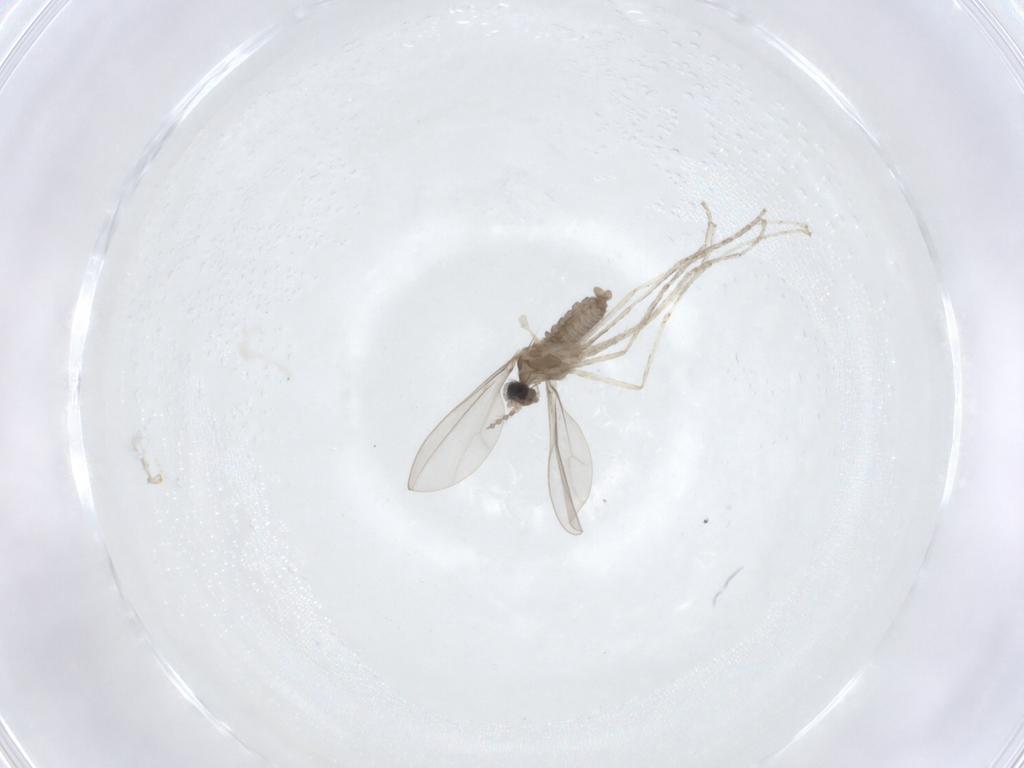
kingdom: Animalia
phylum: Arthropoda
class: Insecta
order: Diptera
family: Cecidomyiidae
